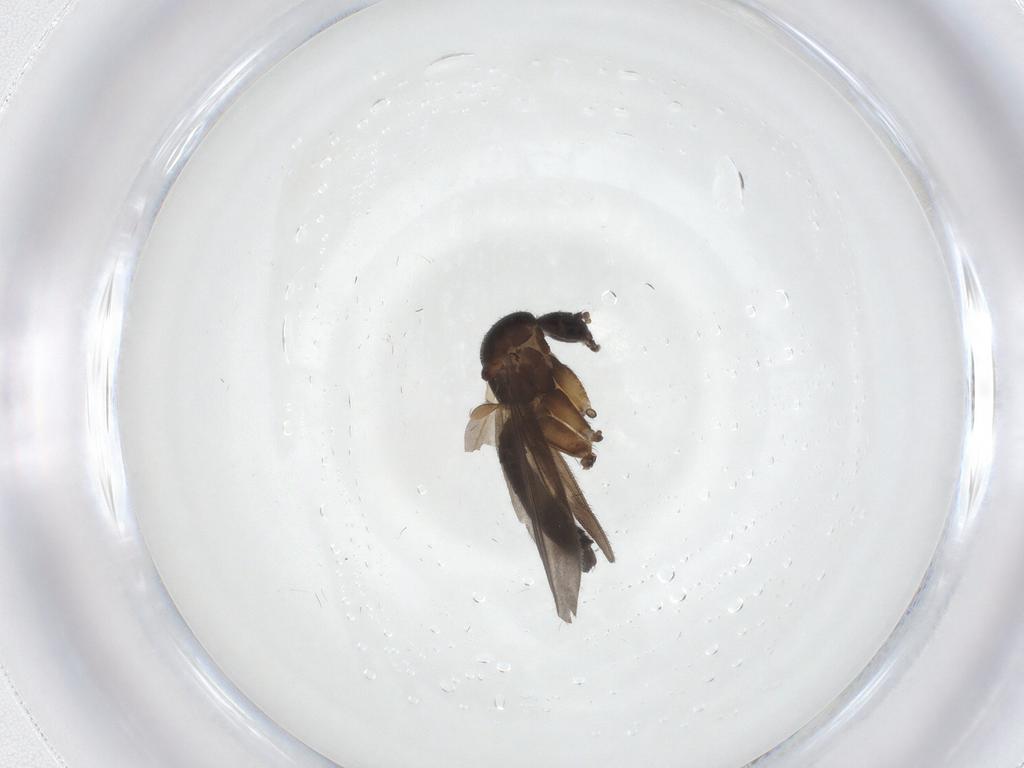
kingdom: Animalia
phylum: Arthropoda
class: Insecta
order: Diptera
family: Mycetophilidae
